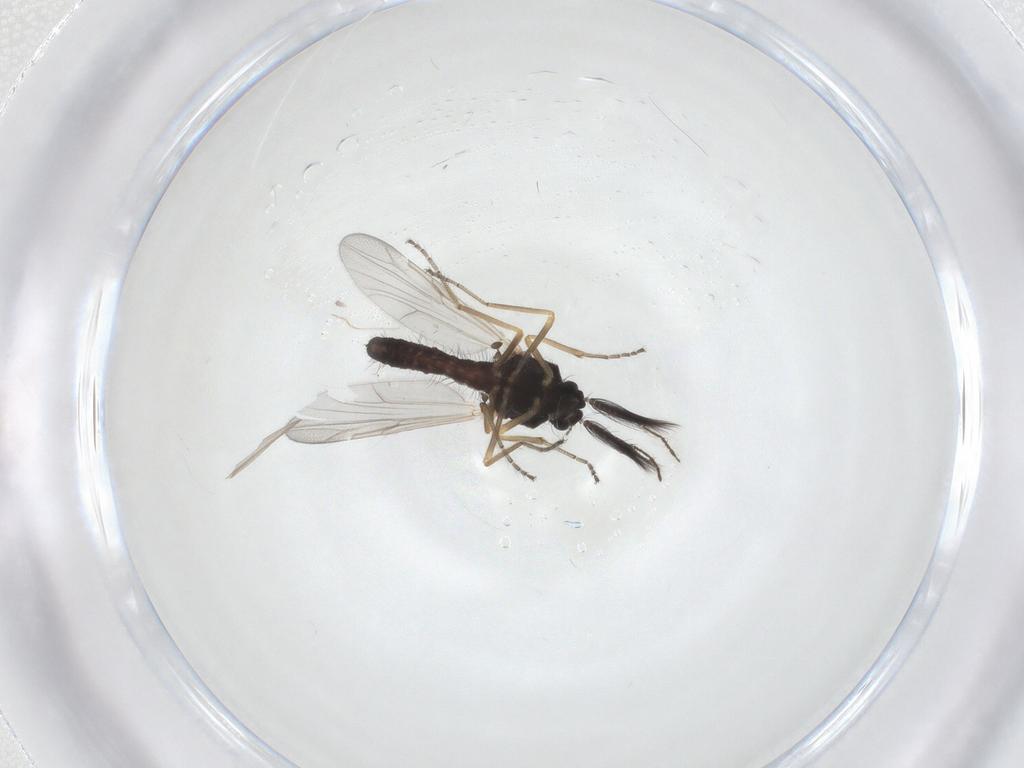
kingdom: Animalia
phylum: Arthropoda
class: Insecta
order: Diptera
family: Ceratopogonidae
